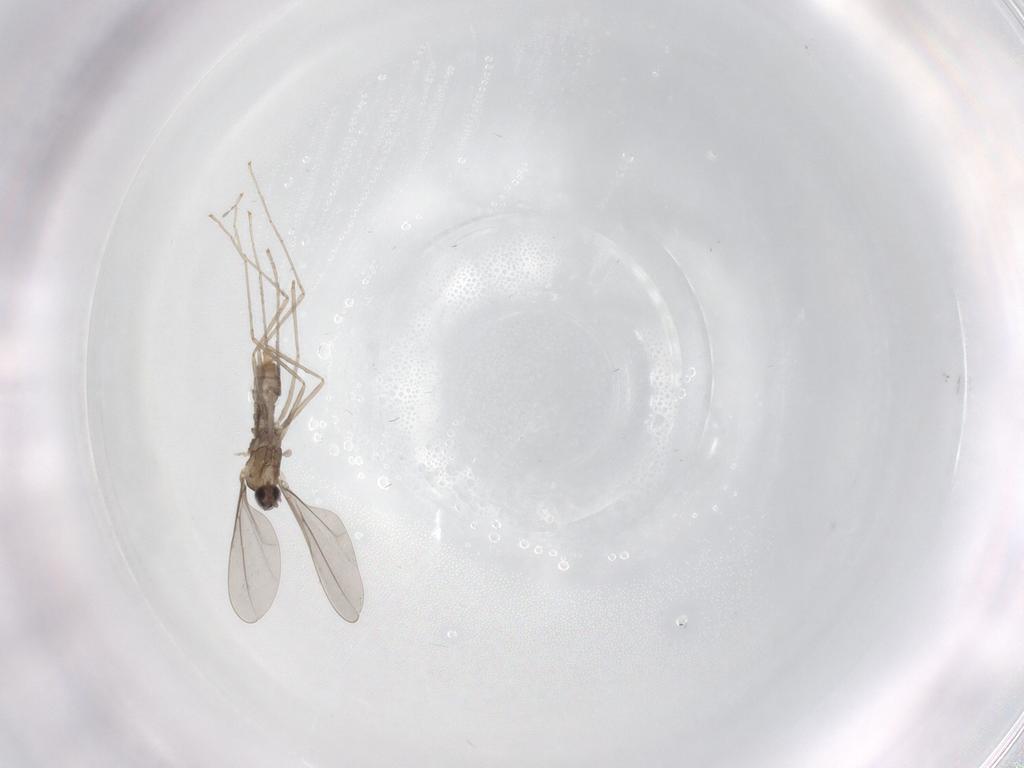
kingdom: Animalia
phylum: Arthropoda
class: Insecta
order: Diptera
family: Cecidomyiidae
